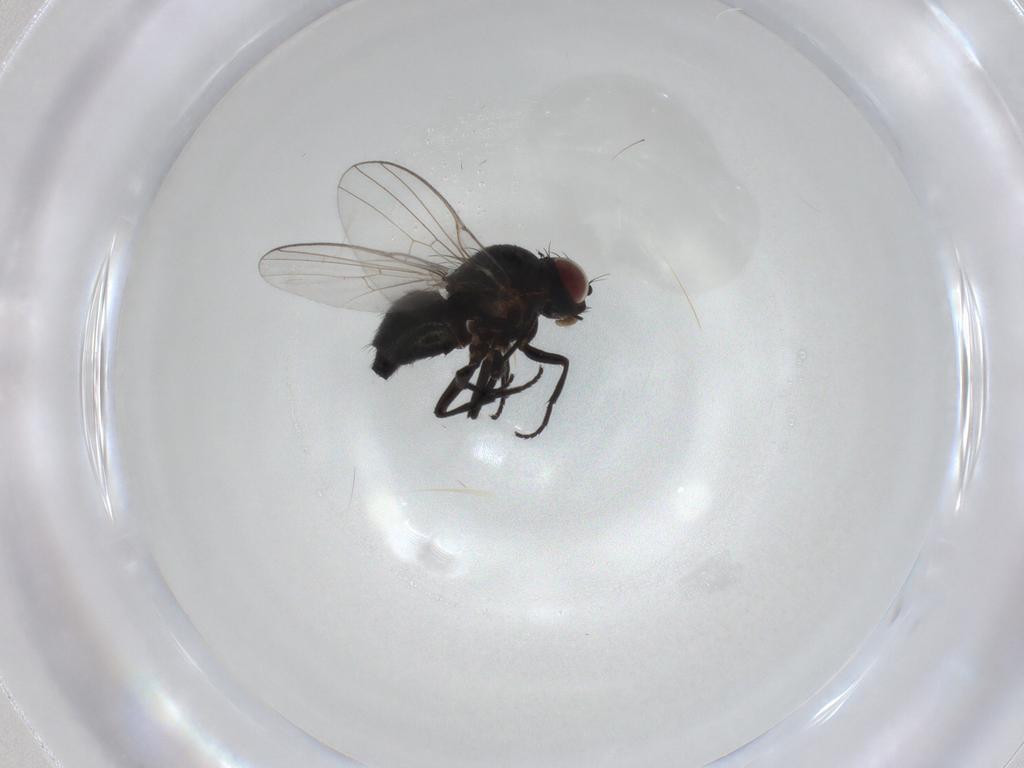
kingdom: Animalia
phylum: Arthropoda
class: Insecta
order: Diptera
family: Agromyzidae
